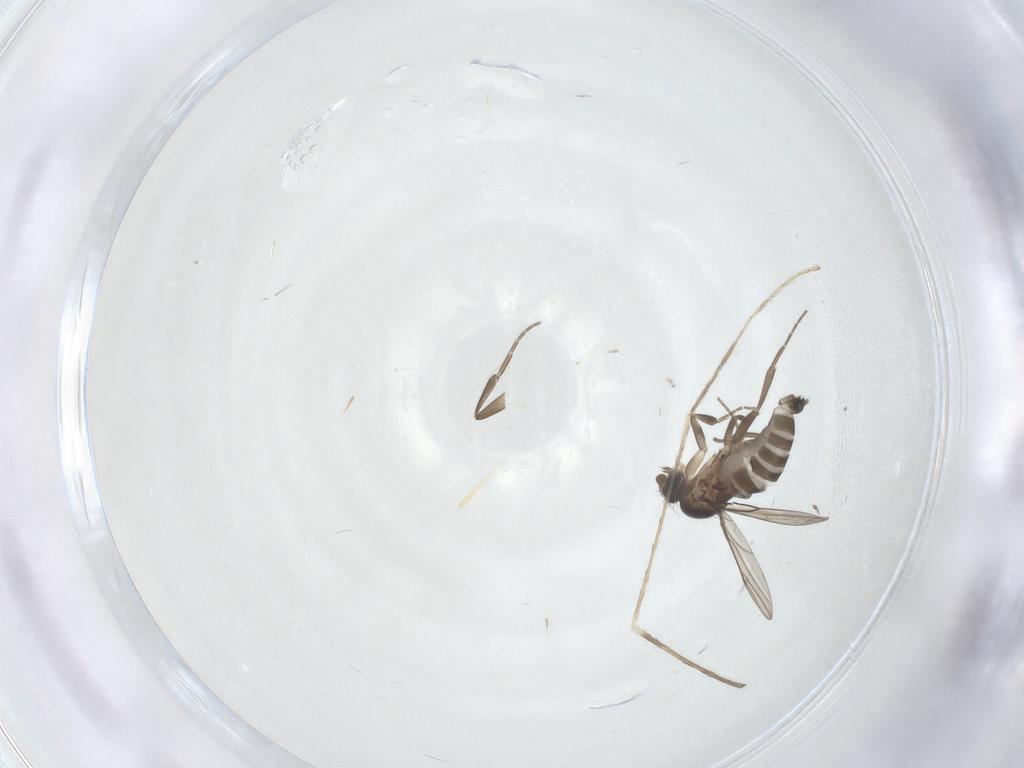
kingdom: Animalia
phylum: Arthropoda
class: Insecta
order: Diptera
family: Phoridae
